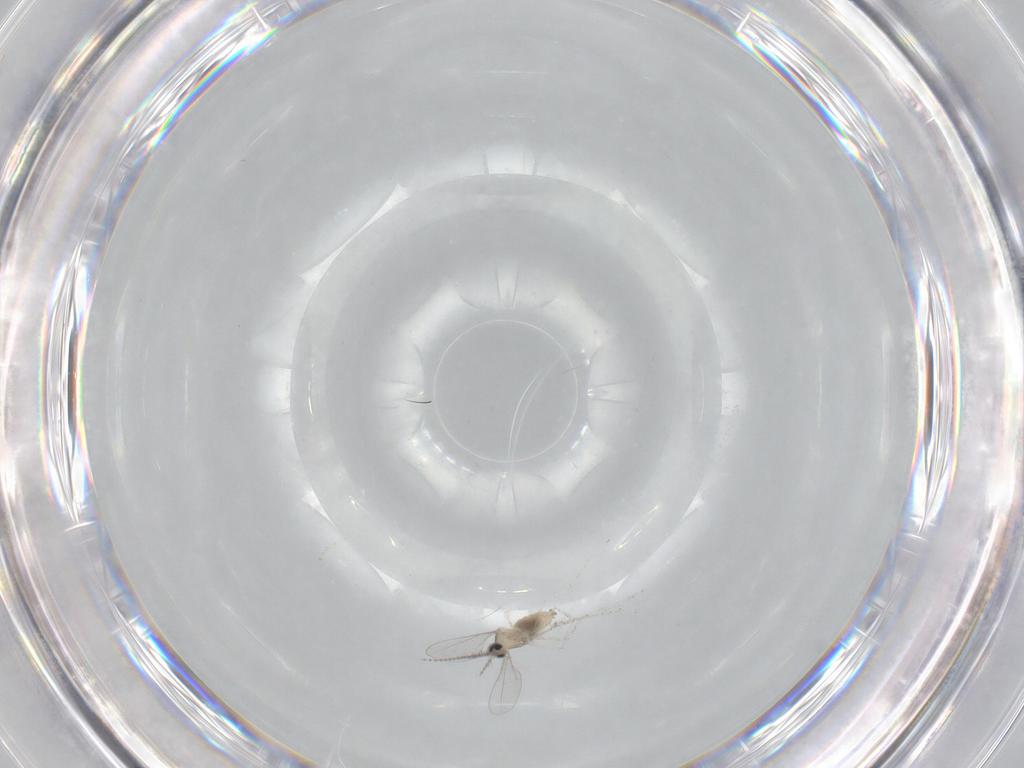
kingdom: Animalia
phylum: Arthropoda
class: Insecta
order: Diptera
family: Cecidomyiidae
